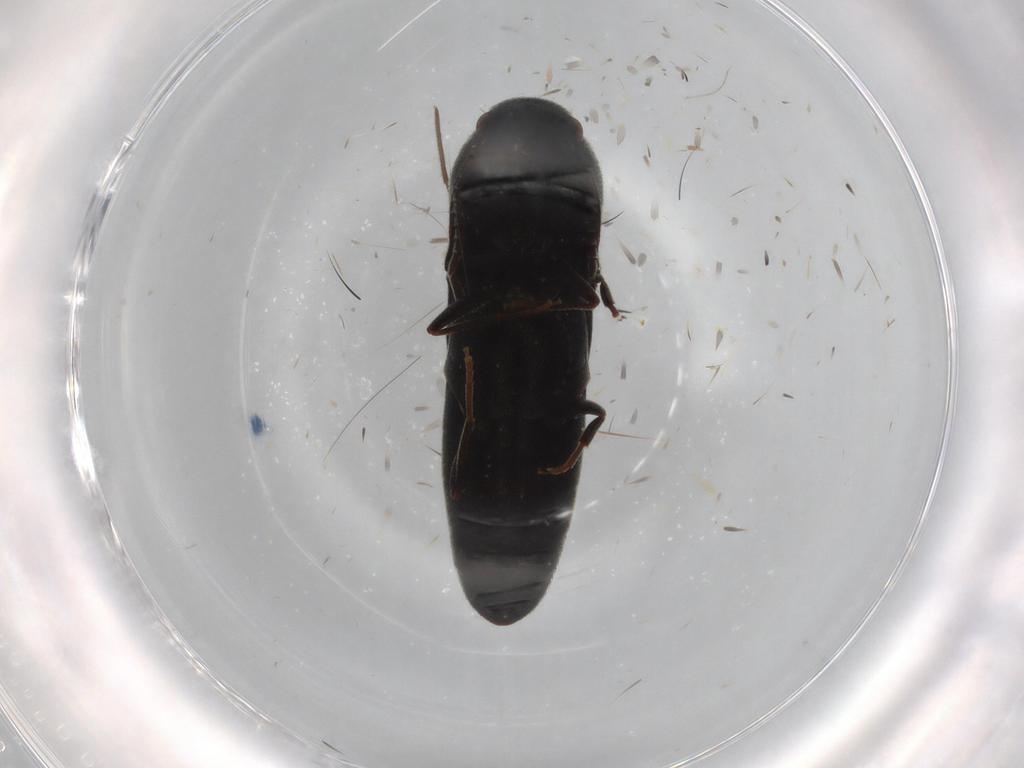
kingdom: Animalia
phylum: Arthropoda
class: Insecta
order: Coleoptera
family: Eucnemidae
